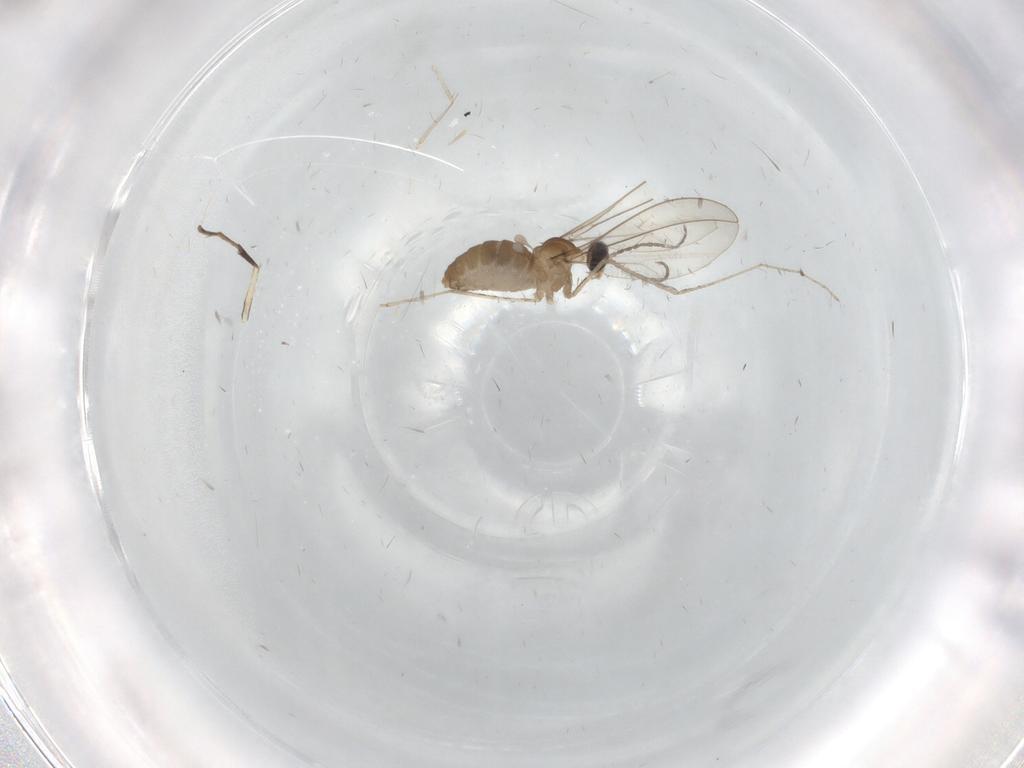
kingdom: Animalia
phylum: Arthropoda
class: Insecta
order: Diptera
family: Cecidomyiidae
